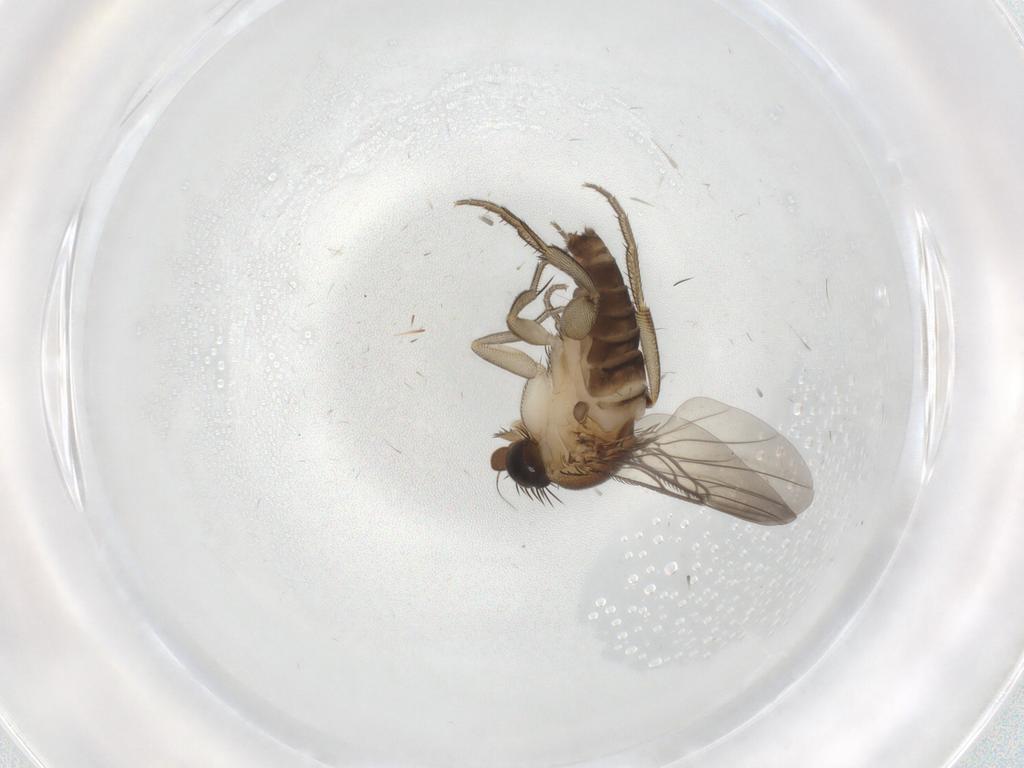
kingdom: Animalia
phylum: Arthropoda
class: Insecta
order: Diptera
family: Phoridae
